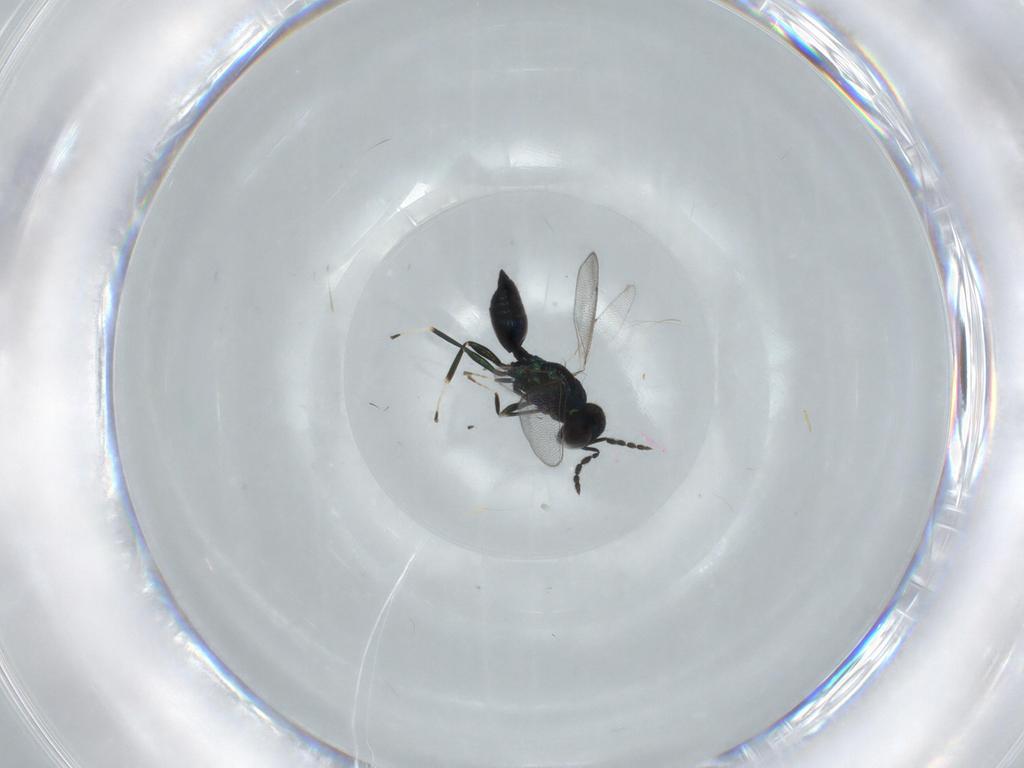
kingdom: Animalia
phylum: Arthropoda
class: Insecta
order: Hymenoptera
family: Eulophidae
